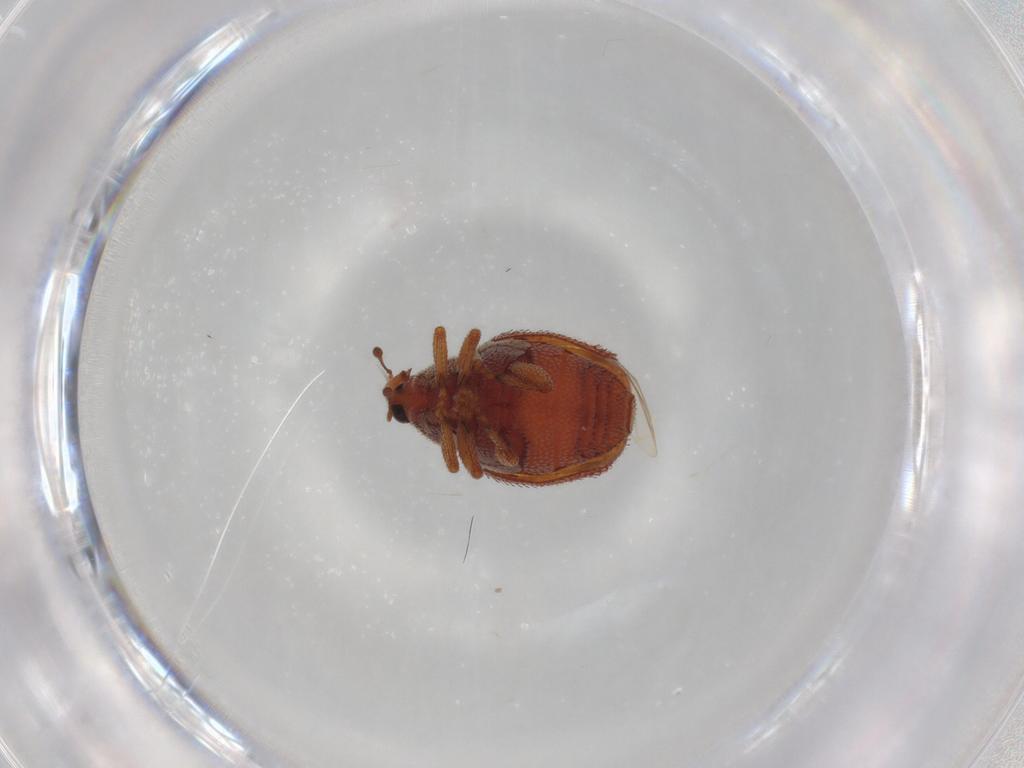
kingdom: Animalia
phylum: Arthropoda
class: Insecta
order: Coleoptera
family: Curculionidae
